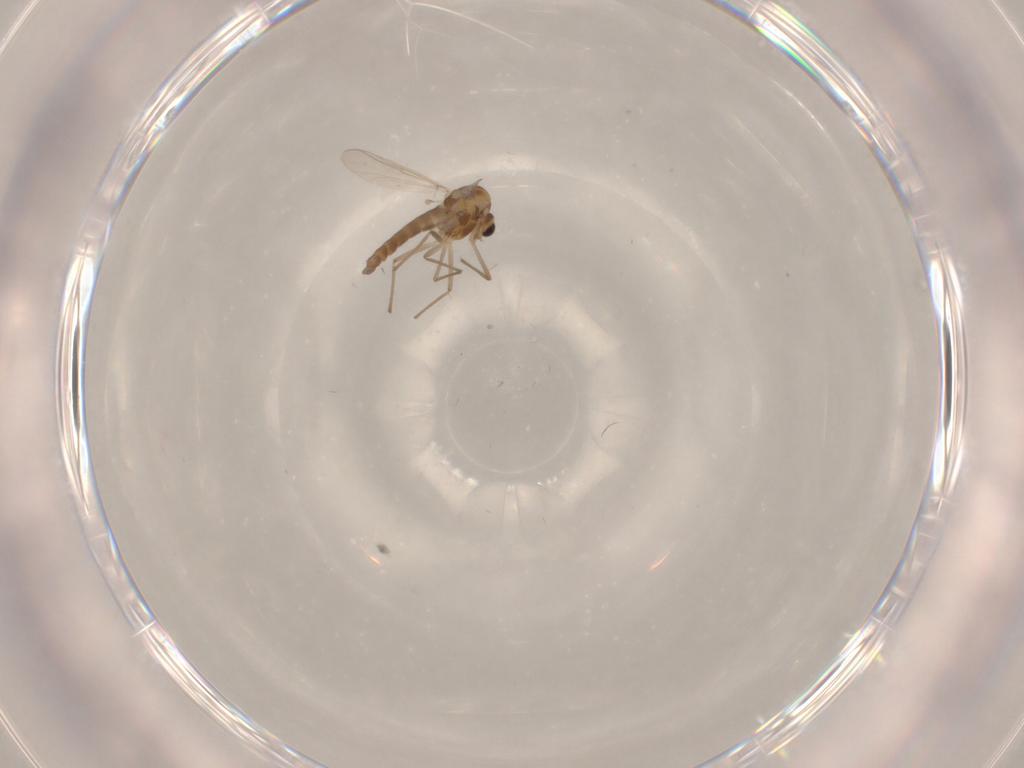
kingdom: Animalia
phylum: Arthropoda
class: Insecta
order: Diptera
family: Chironomidae
